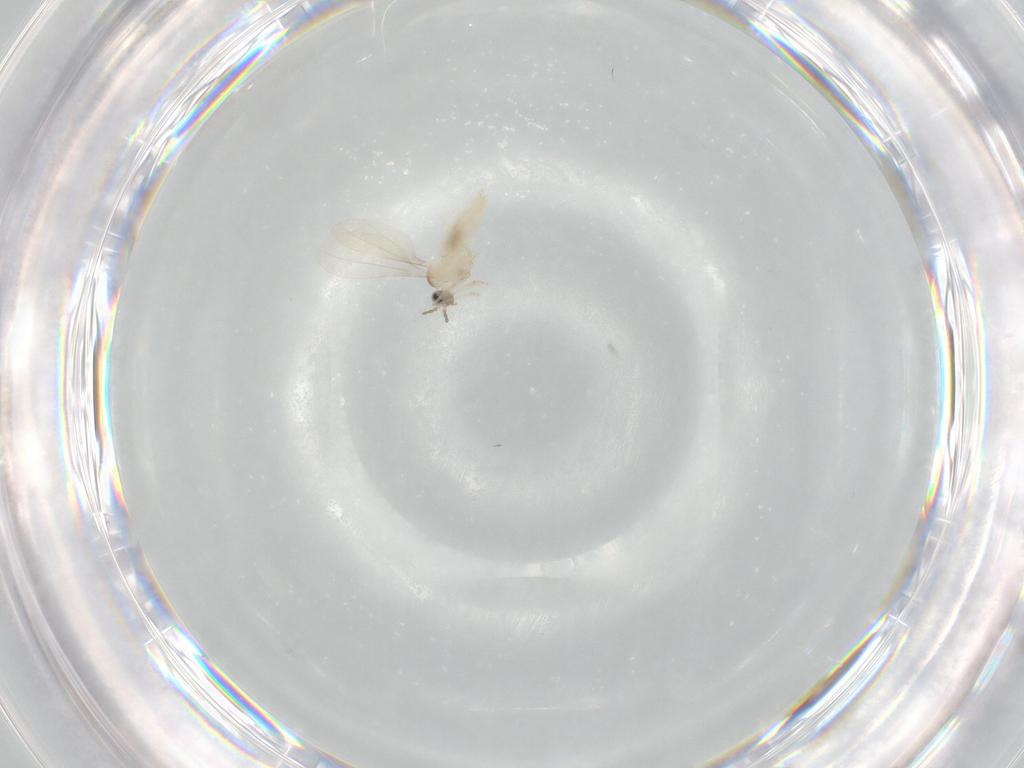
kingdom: Animalia
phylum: Arthropoda
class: Insecta
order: Diptera
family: Cecidomyiidae
